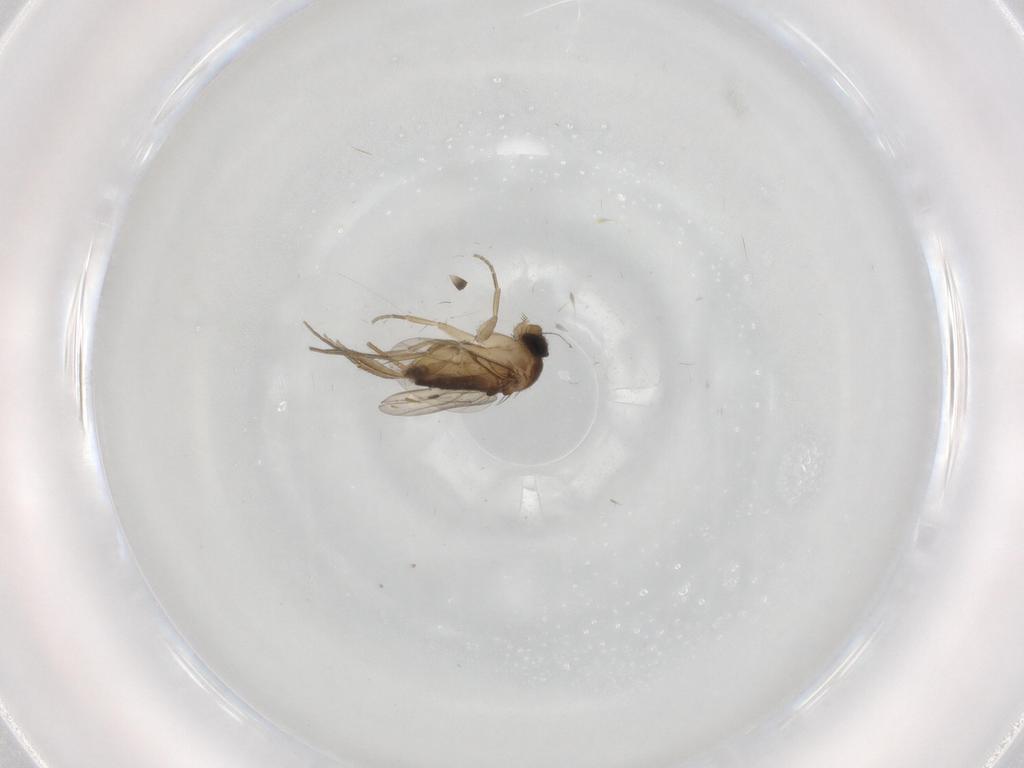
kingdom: Animalia
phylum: Arthropoda
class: Insecta
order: Diptera
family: Phoridae
